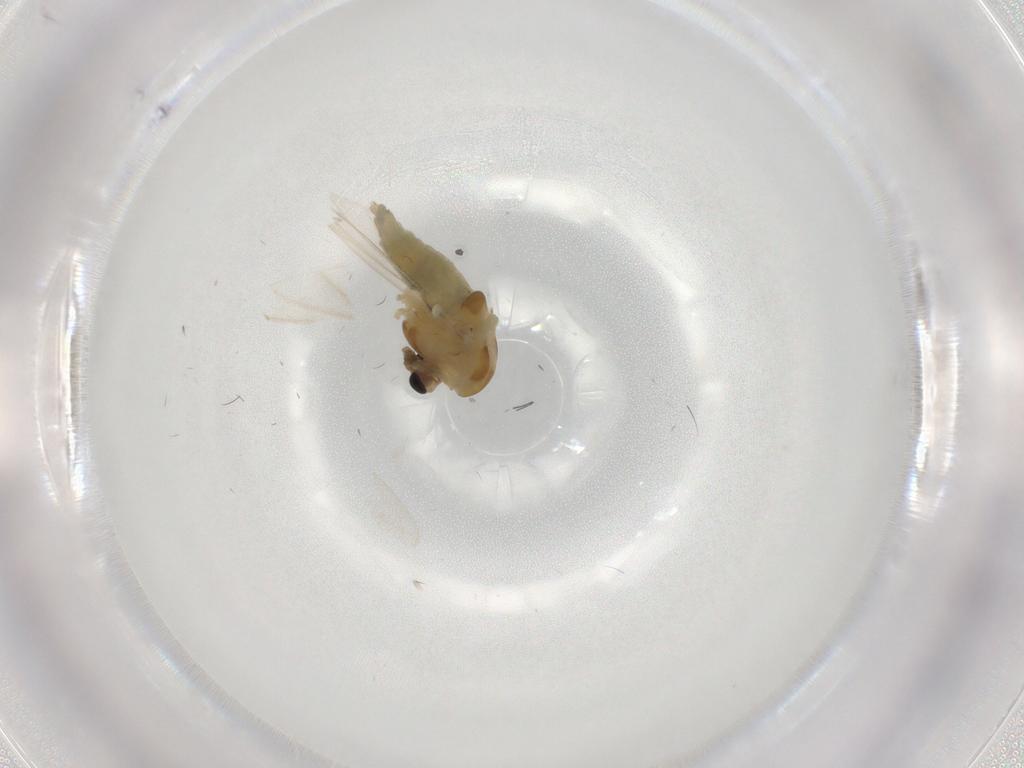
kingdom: Animalia
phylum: Arthropoda
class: Insecta
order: Diptera
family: Chironomidae
